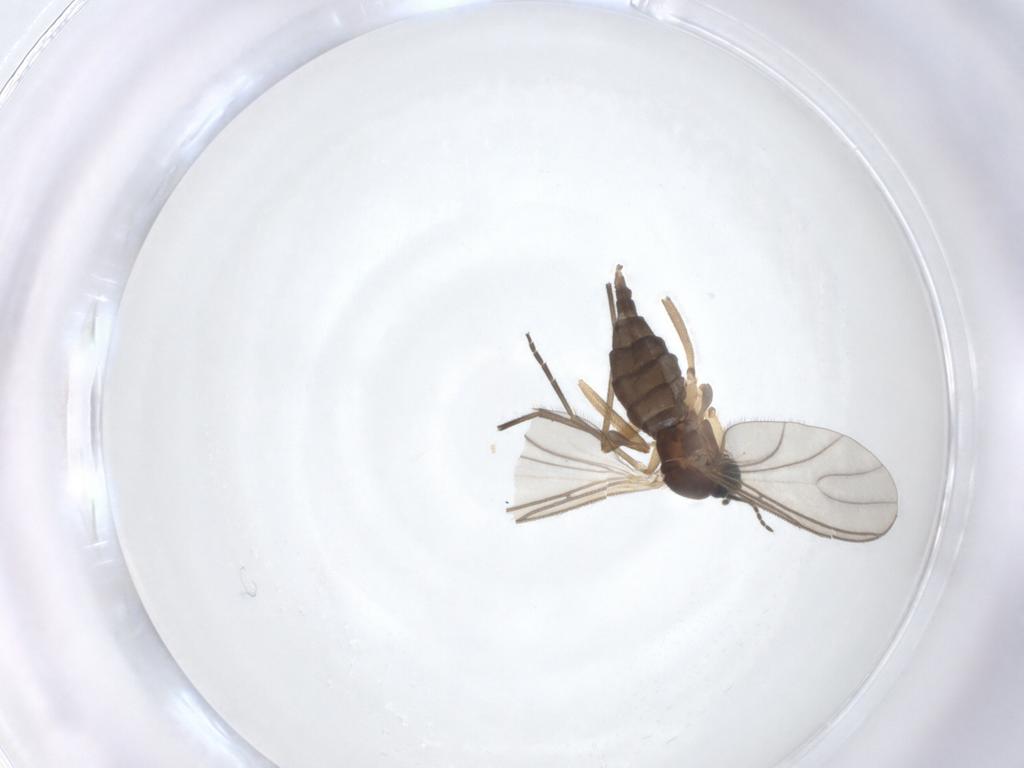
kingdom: Animalia
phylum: Arthropoda
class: Insecta
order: Diptera
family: Sciaridae
